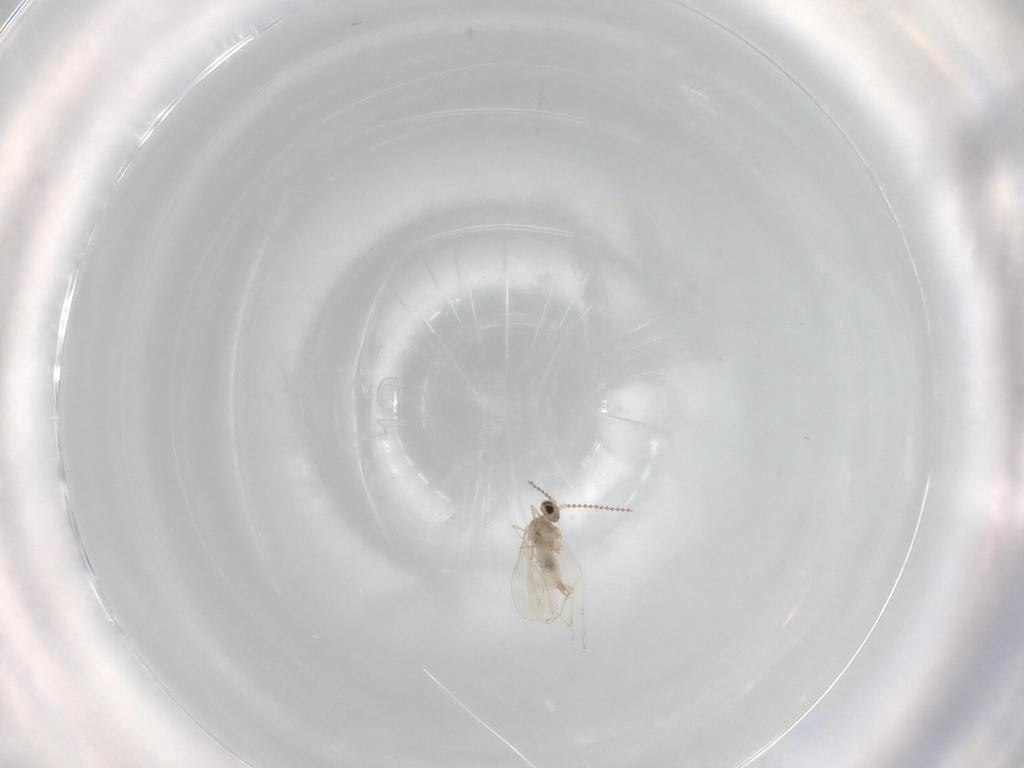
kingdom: Animalia
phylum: Arthropoda
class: Insecta
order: Diptera
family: Cecidomyiidae
